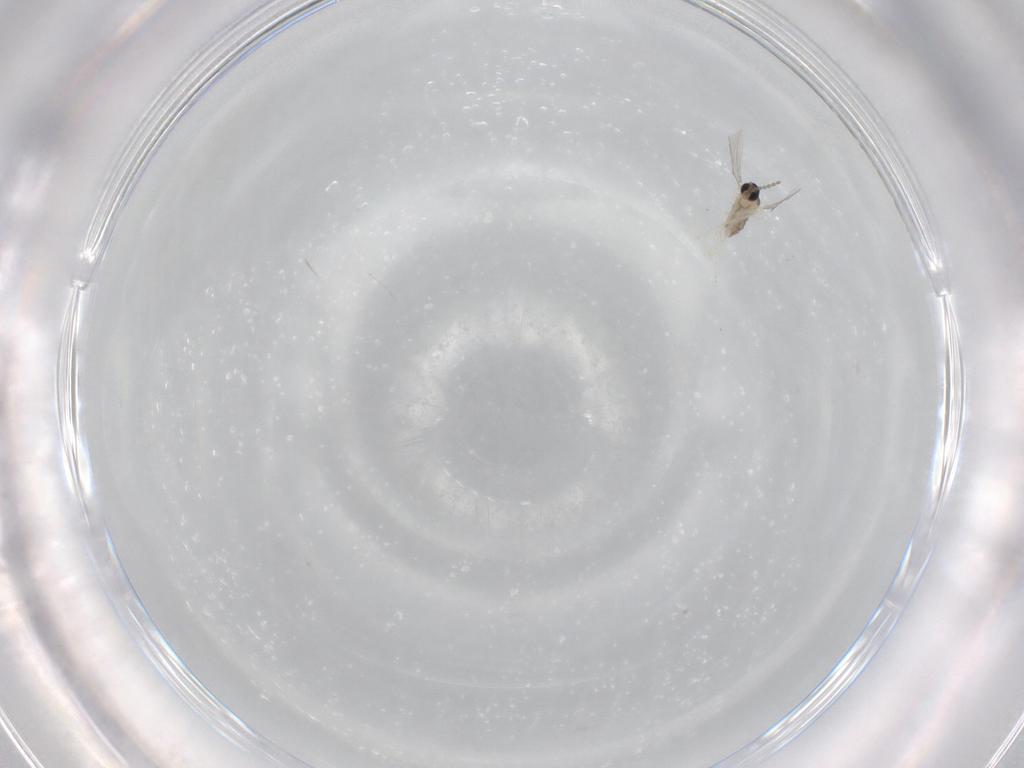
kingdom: Animalia
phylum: Arthropoda
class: Insecta
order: Diptera
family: Cecidomyiidae
